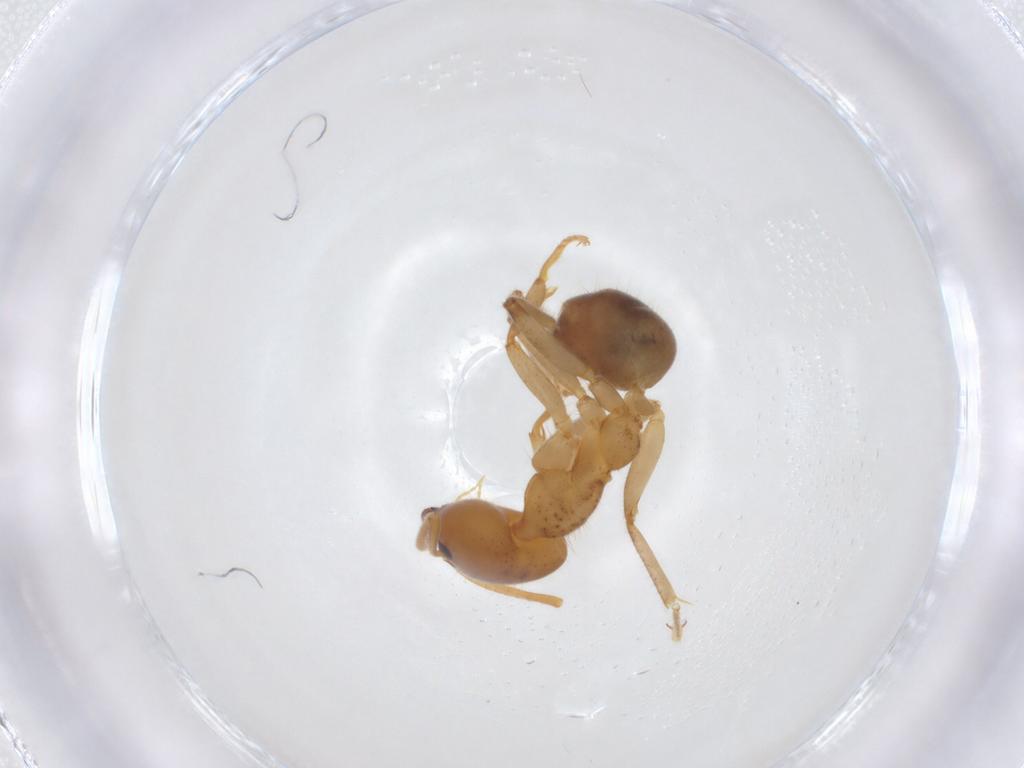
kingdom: Animalia
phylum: Arthropoda
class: Insecta
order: Hymenoptera
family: Formicidae
